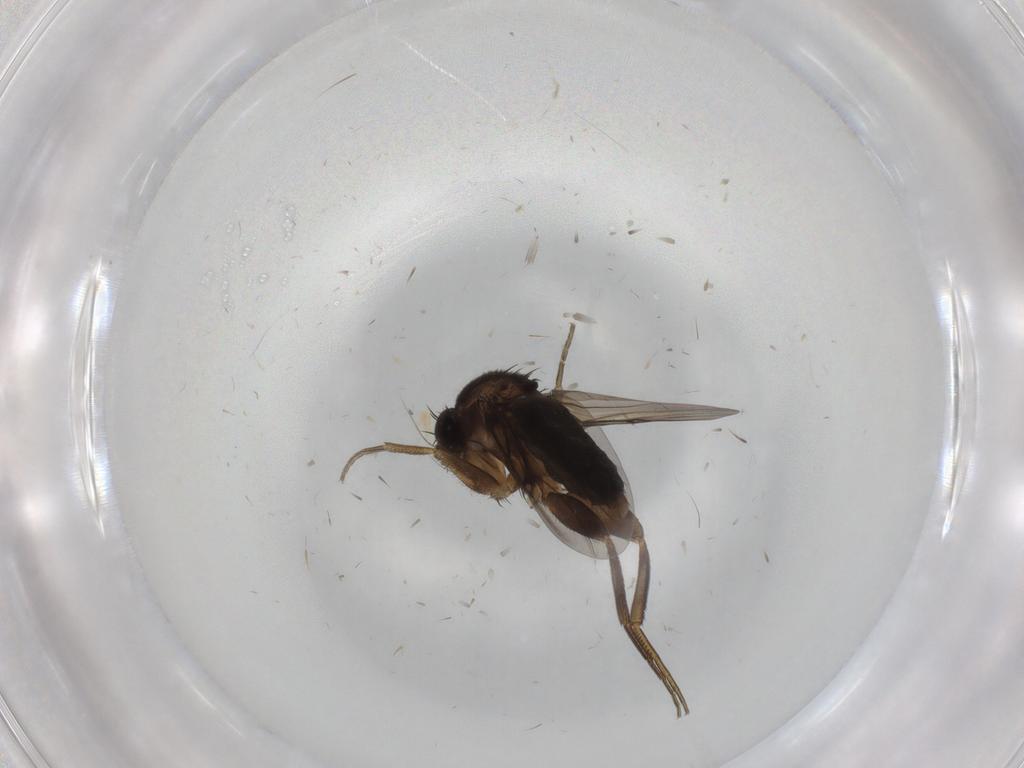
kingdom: Animalia
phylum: Arthropoda
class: Insecta
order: Diptera
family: Phoridae
